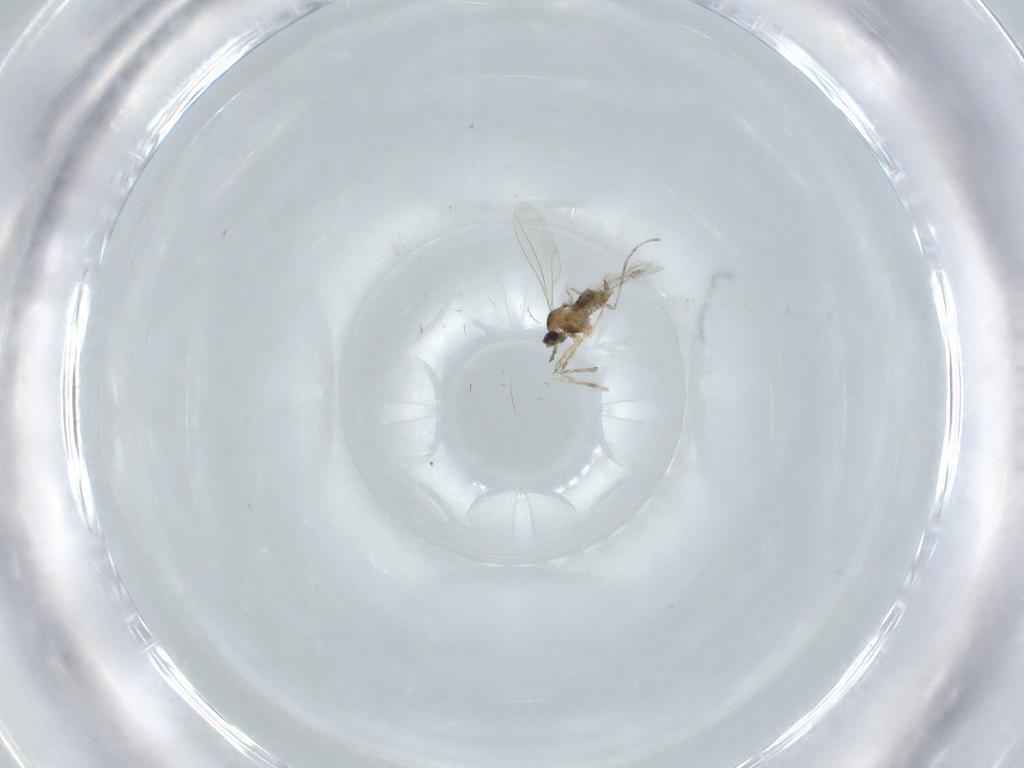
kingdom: Animalia
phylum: Arthropoda
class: Insecta
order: Diptera
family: Cecidomyiidae
